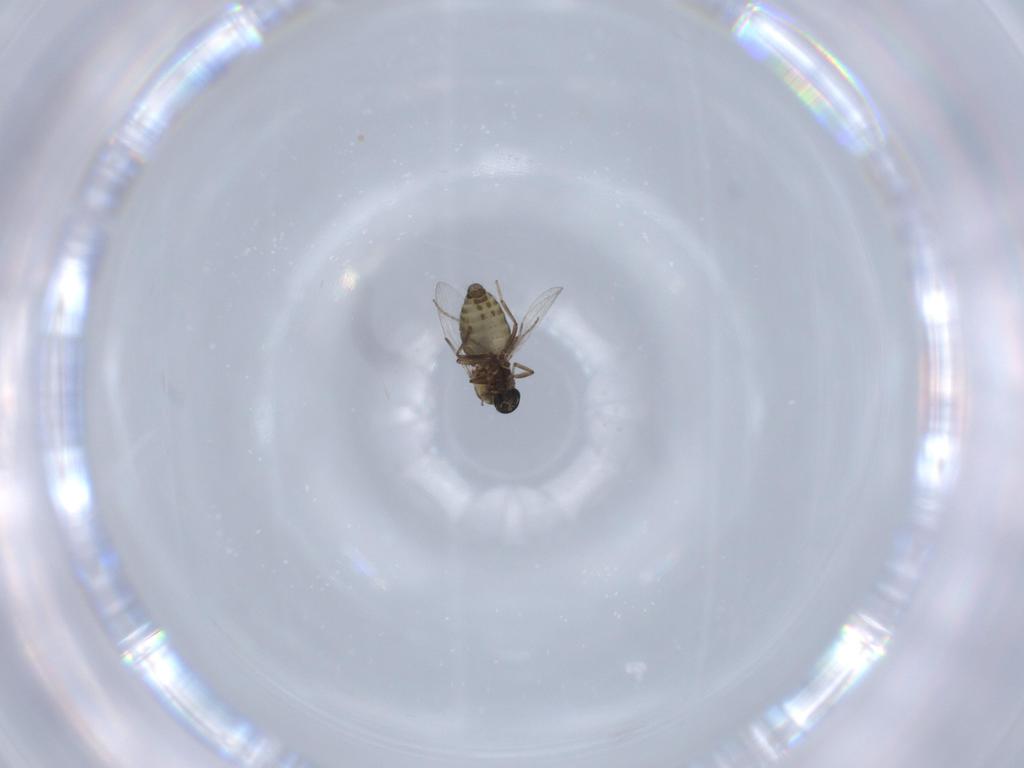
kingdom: Animalia
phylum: Arthropoda
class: Insecta
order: Diptera
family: Ceratopogonidae
